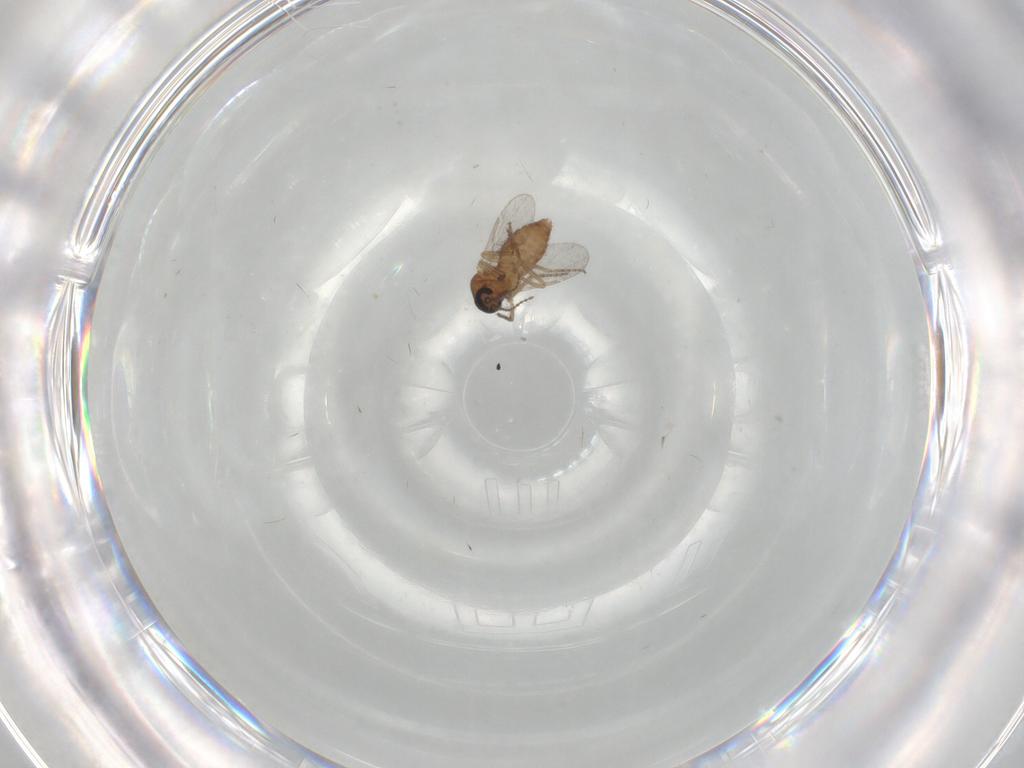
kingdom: Animalia
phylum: Arthropoda
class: Insecta
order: Diptera
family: Ceratopogonidae
